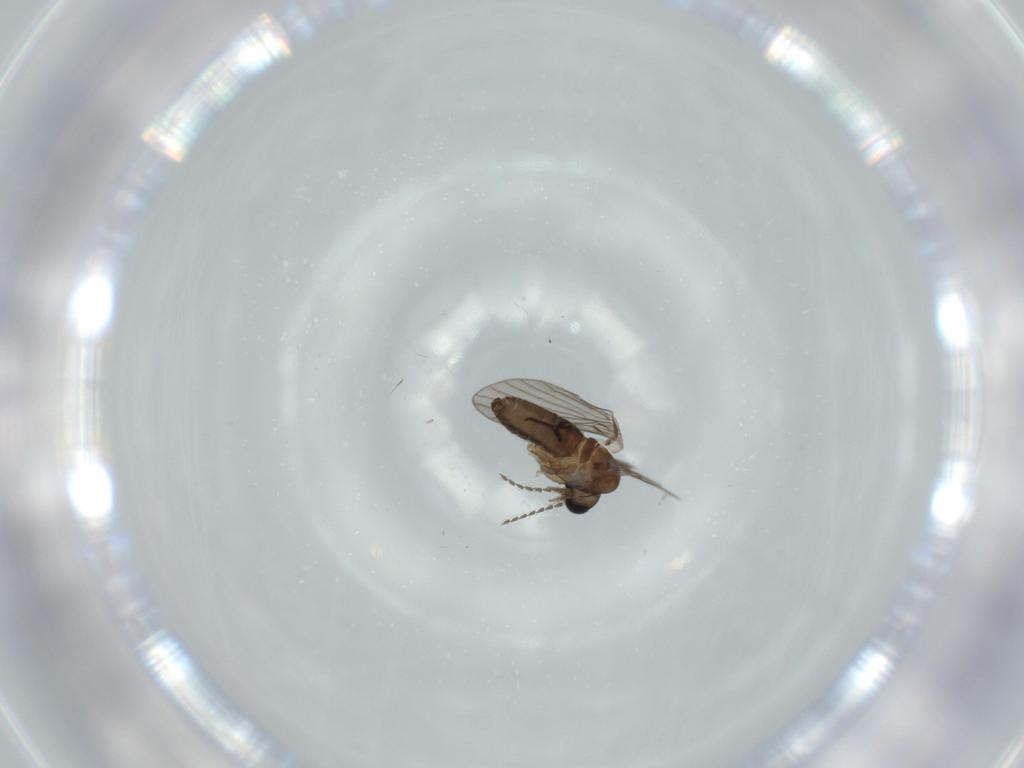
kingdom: Animalia
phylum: Arthropoda
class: Insecta
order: Diptera
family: Psychodidae
